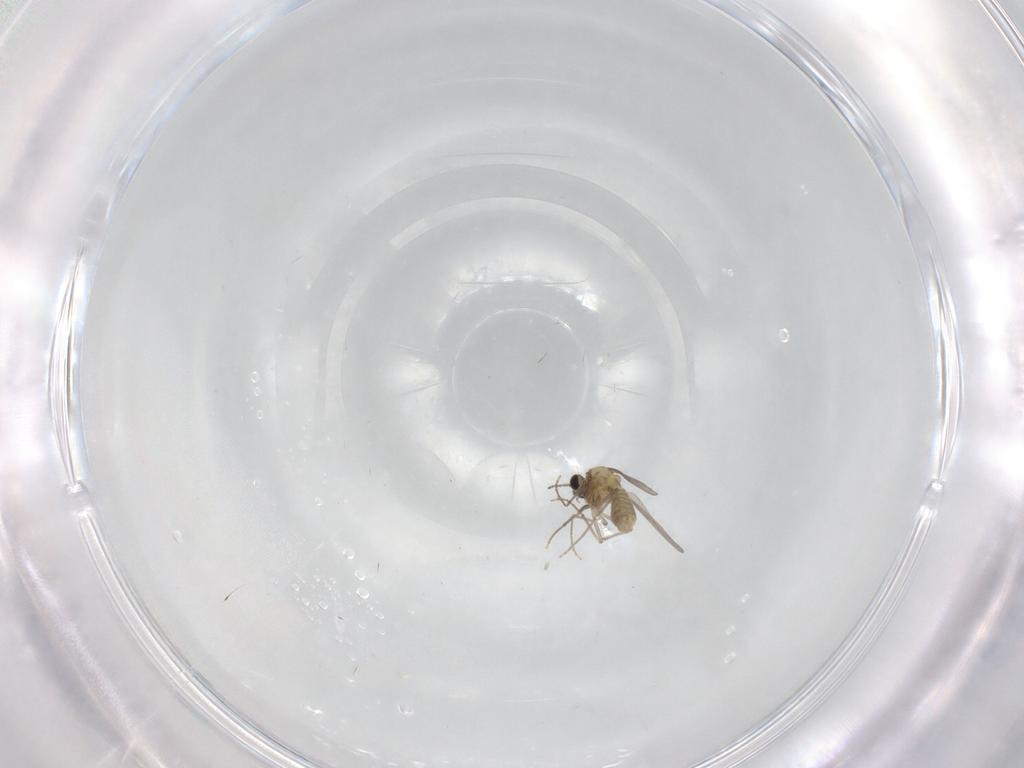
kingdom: Animalia
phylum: Arthropoda
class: Insecta
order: Diptera
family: Chironomidae
